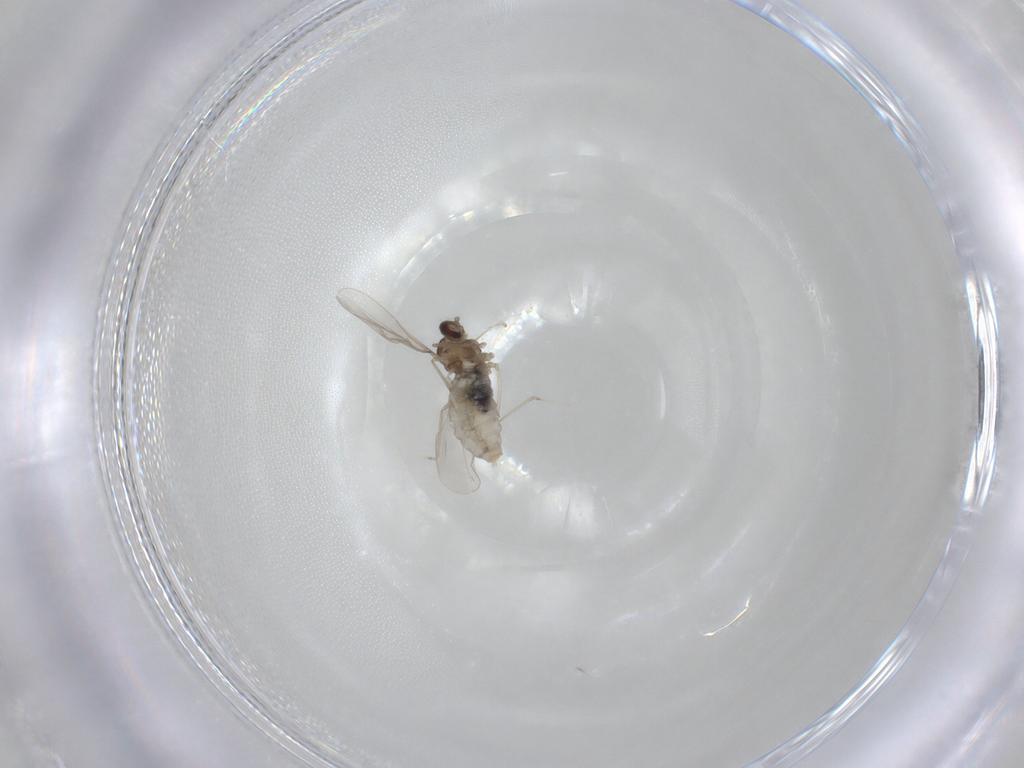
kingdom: Animalia
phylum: Arthropoda
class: Insecta
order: Diptera
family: Cecidomyiidae
